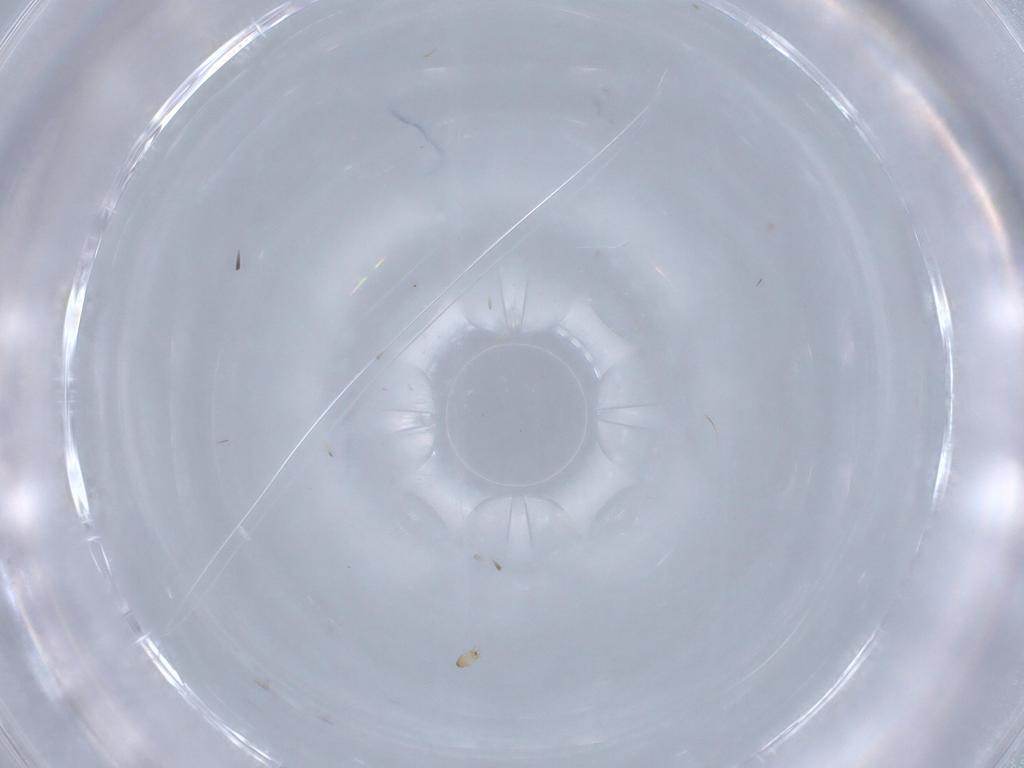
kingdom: Animalia
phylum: Arthropoda
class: Arachnida
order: Trombidiformes
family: Erythraeidae
